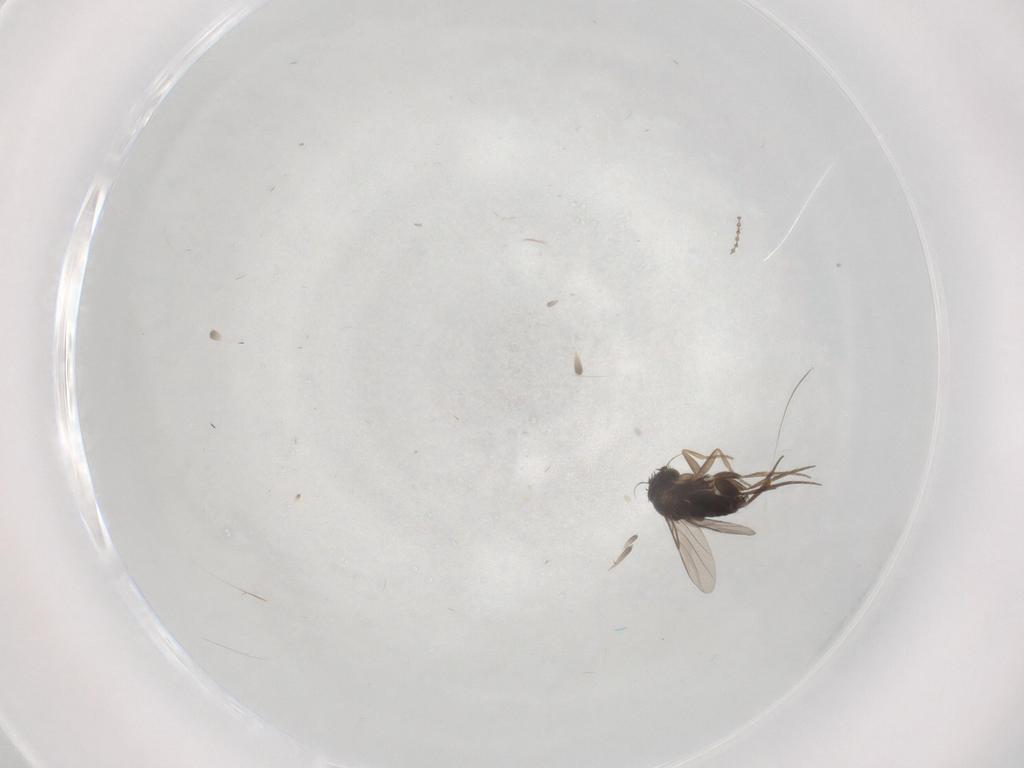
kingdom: Animalia
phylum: Arthropoda
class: Insecta
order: Diptera
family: Phoridae
